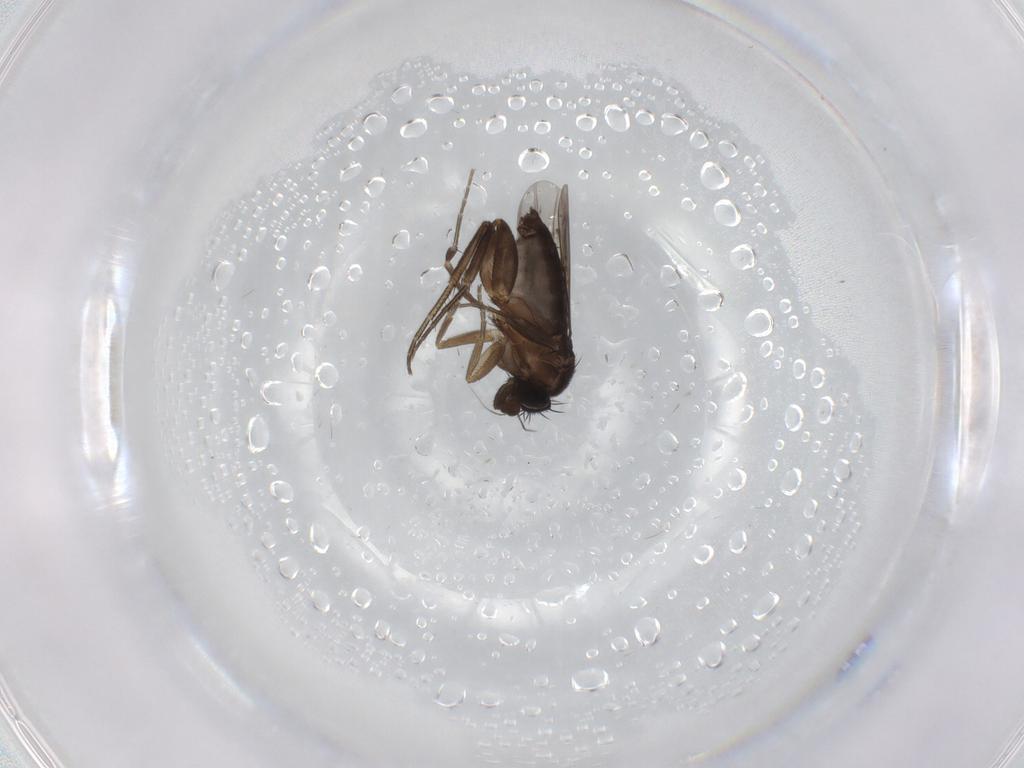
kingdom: Animalia
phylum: Arthropoda
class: Insecta
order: Diptera
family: Phoridae
